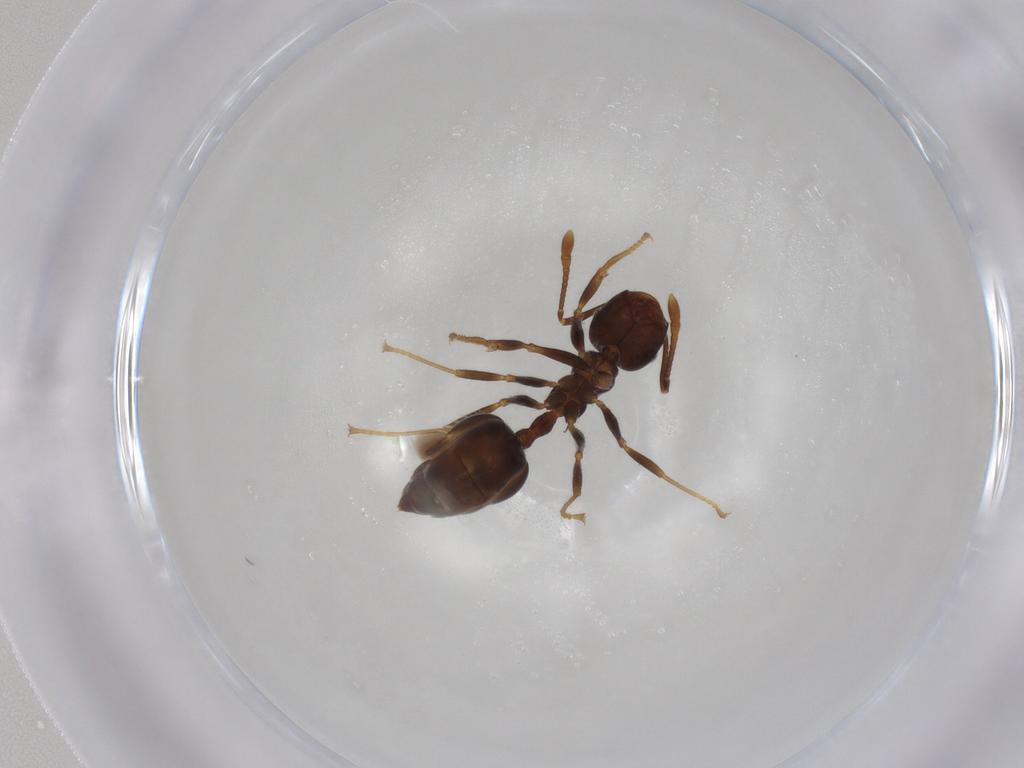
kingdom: Animalia
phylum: Arthropoda
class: Insecta
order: Hymenoptera
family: Formicidae
